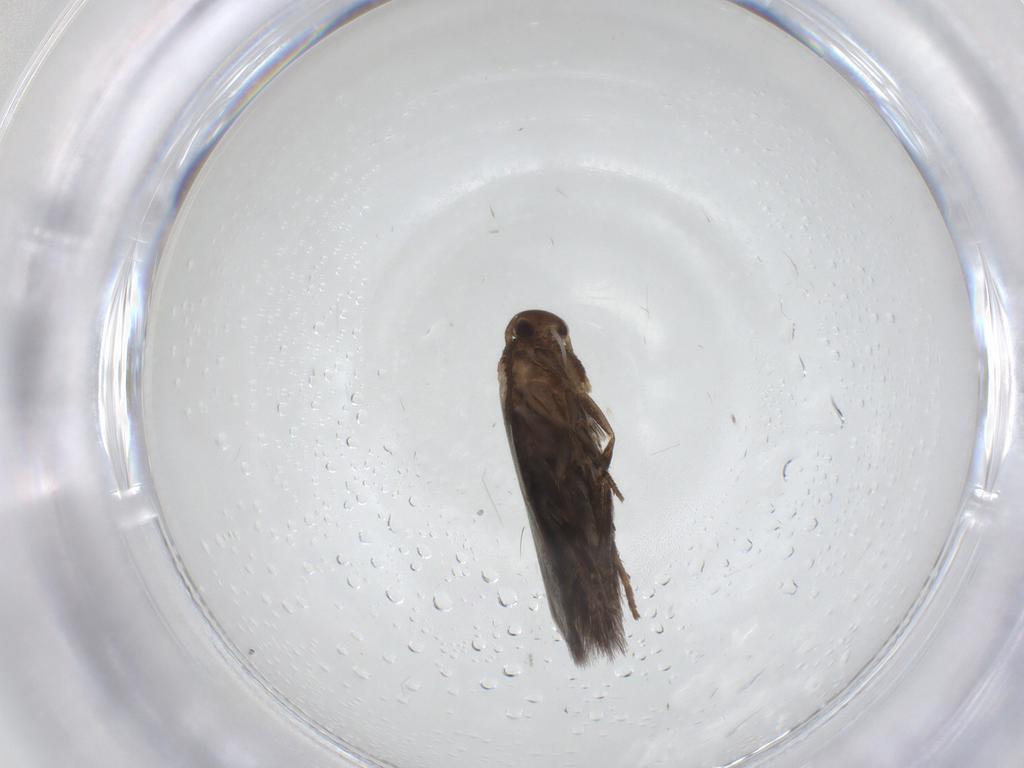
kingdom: Animalia
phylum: Arthropoda
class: Insecta
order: Lepidoptera
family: Elachistidae
